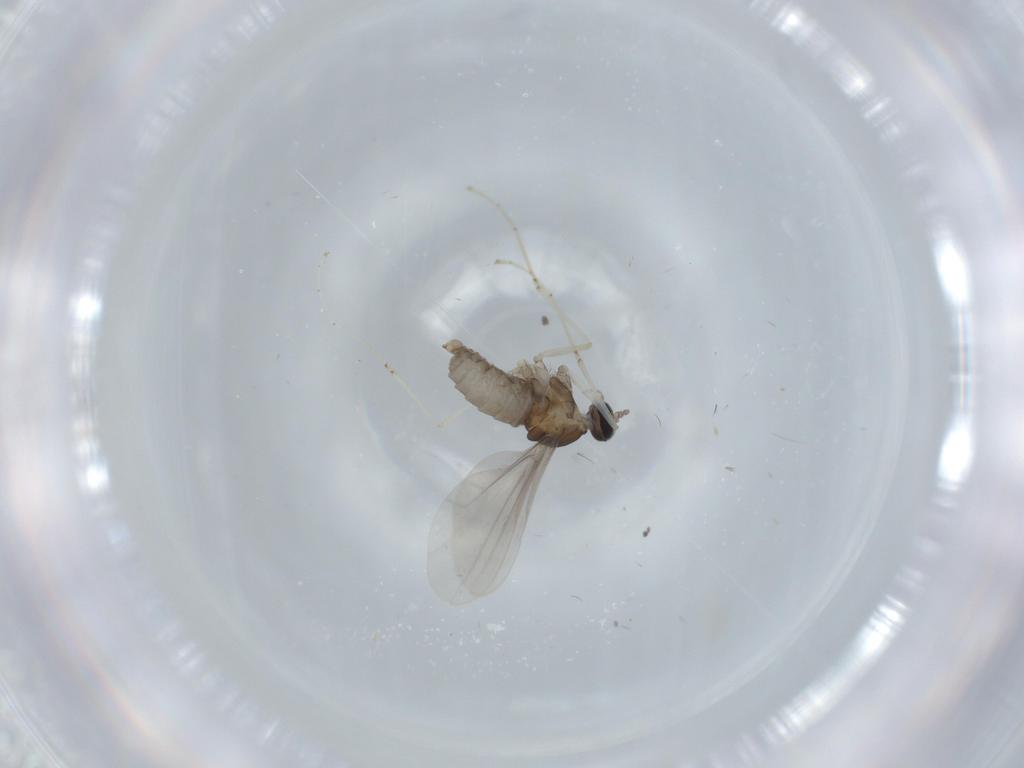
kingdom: Animalia
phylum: Arthropoda
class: Insecta
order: Diptera
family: Cecidomyiidae
